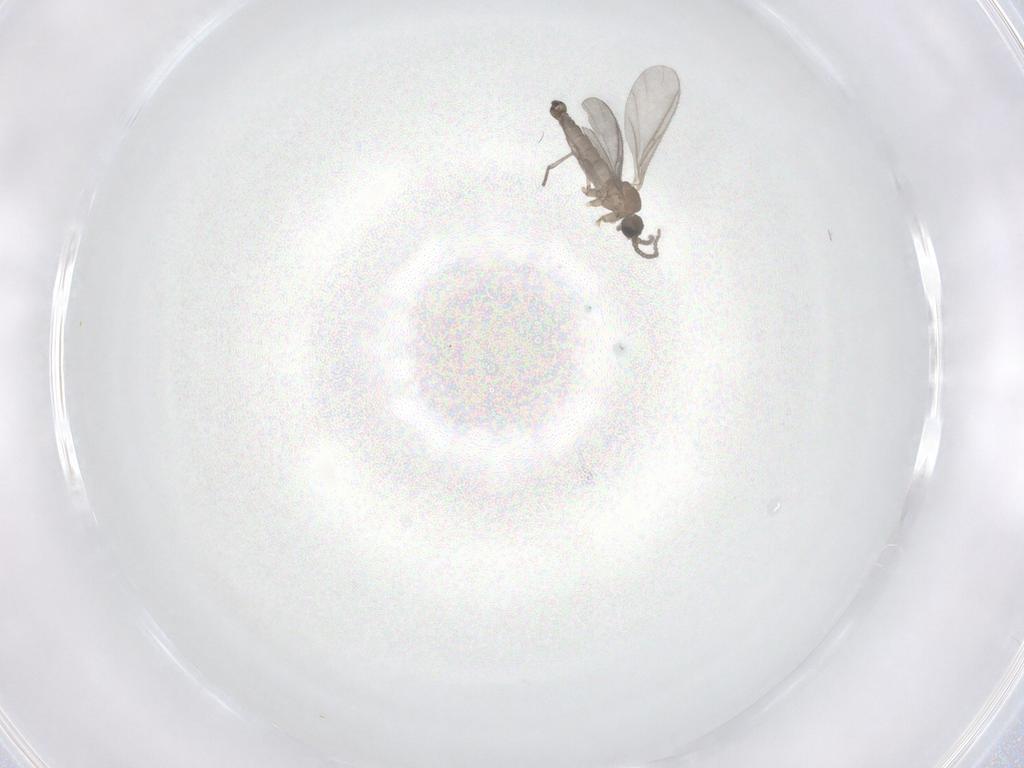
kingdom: Animalia
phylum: Arthropoda
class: Insecta
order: Diptera
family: Sciaridae
